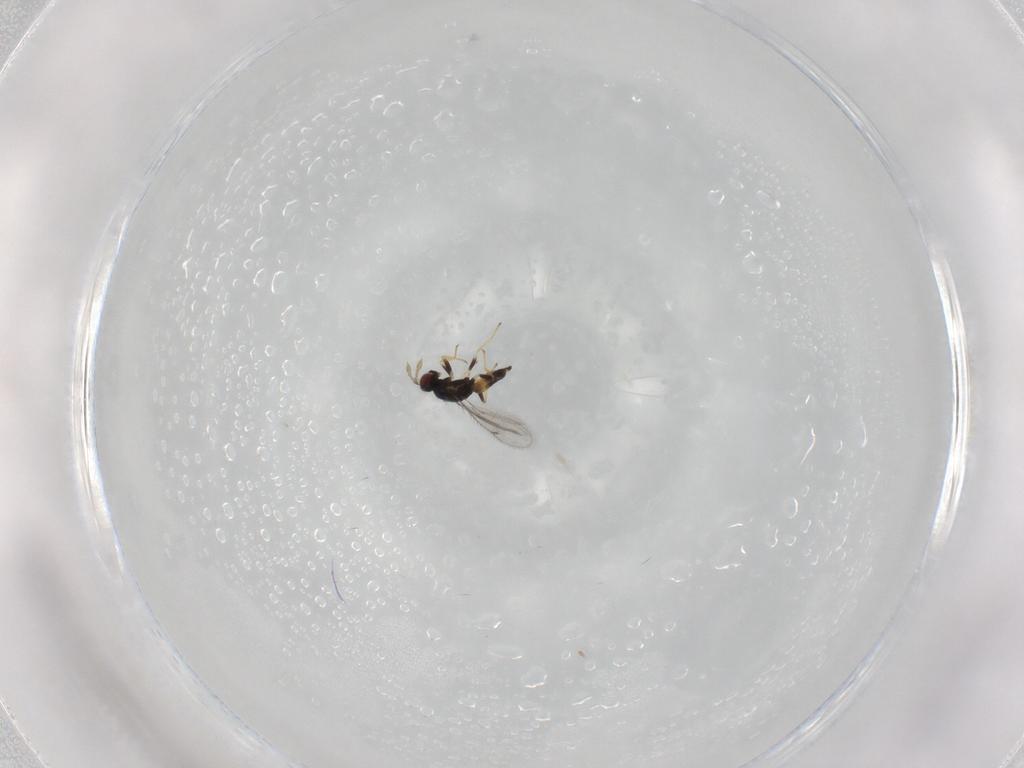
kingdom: Animalia
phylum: Arthropoda
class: Insecta
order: Hymenoptera
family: Eulophidae
